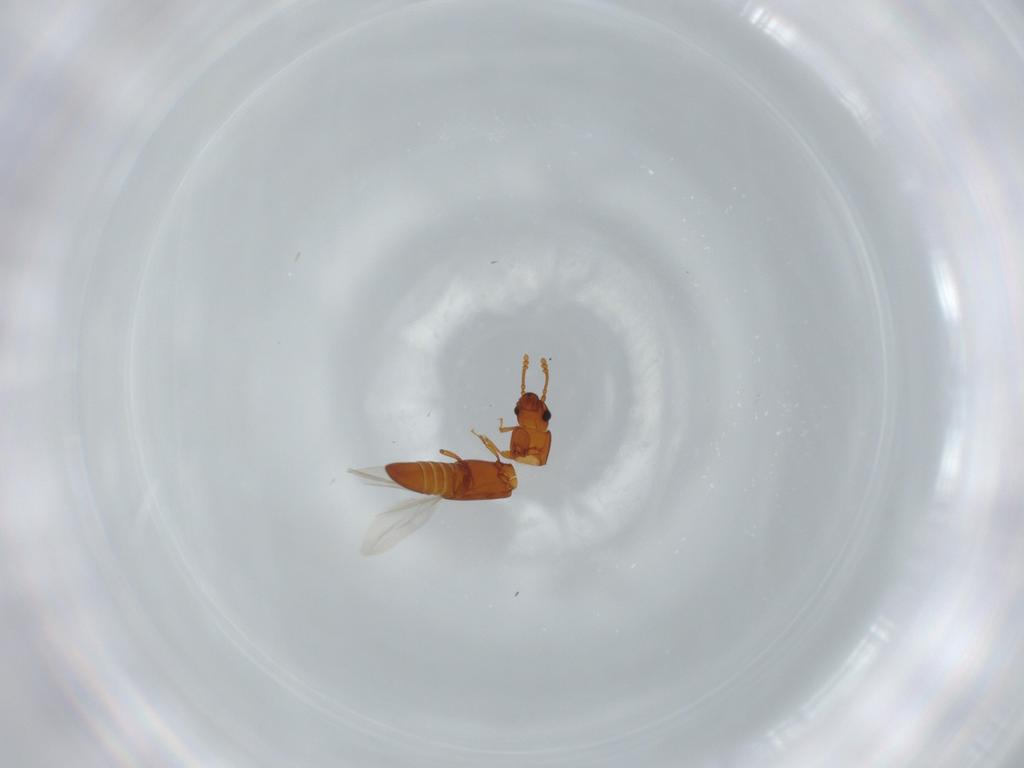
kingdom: Animalia
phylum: Arthropoda
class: Insecta
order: Coleoptera
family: Smicripidae
